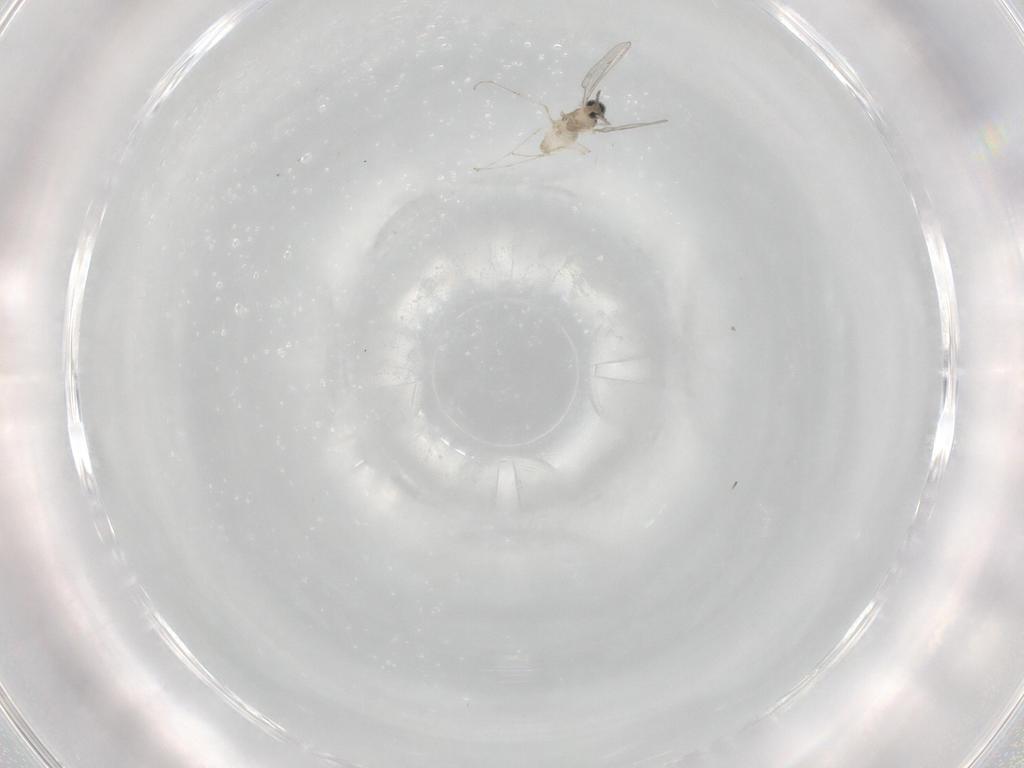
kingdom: Animalia
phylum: Arthropoda
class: Insecta
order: Diptera
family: Cecidomyiidae
